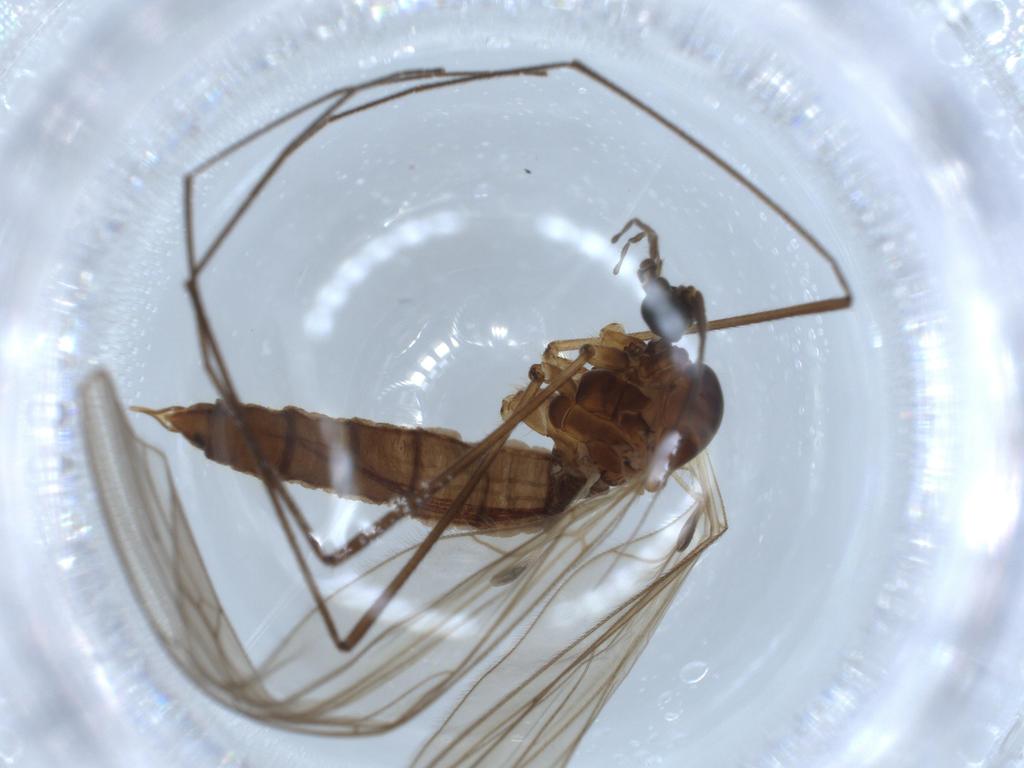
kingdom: Animalia
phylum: Arthropoda
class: Insecta
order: Diptera
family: Trichoceridae
